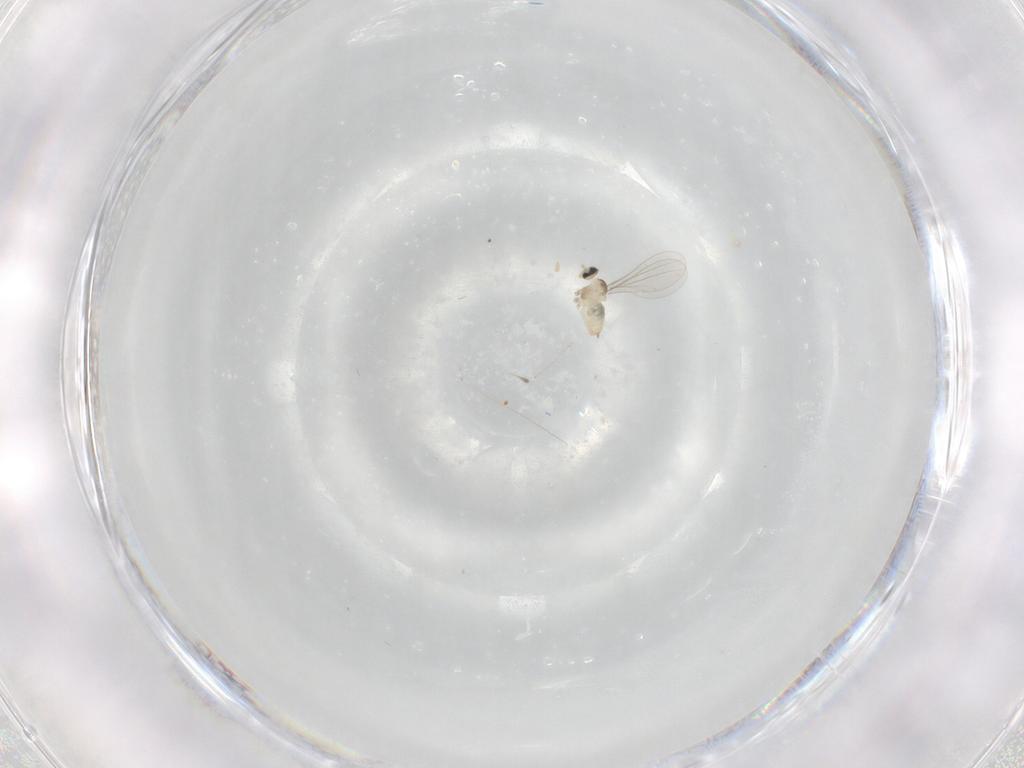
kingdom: Animalia
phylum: Arthropoda
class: Insecta
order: Diptera
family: Cecidomyiidae
